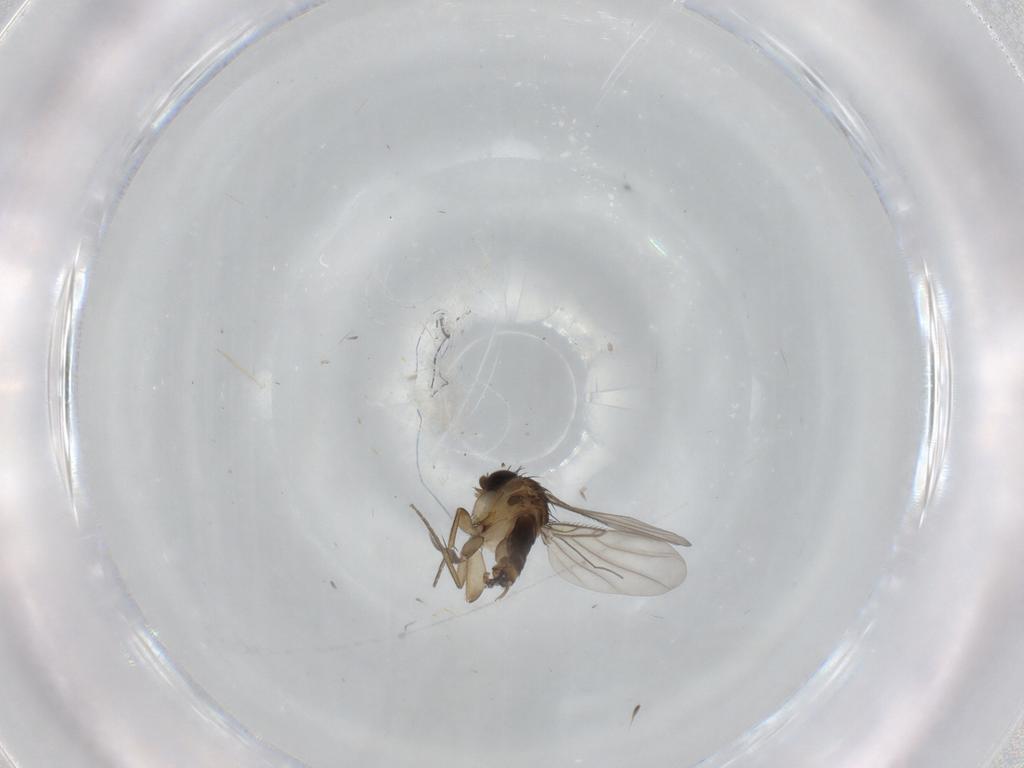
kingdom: Animalia
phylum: Arthropoda
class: Insecta
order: Diptera
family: Phoridae
